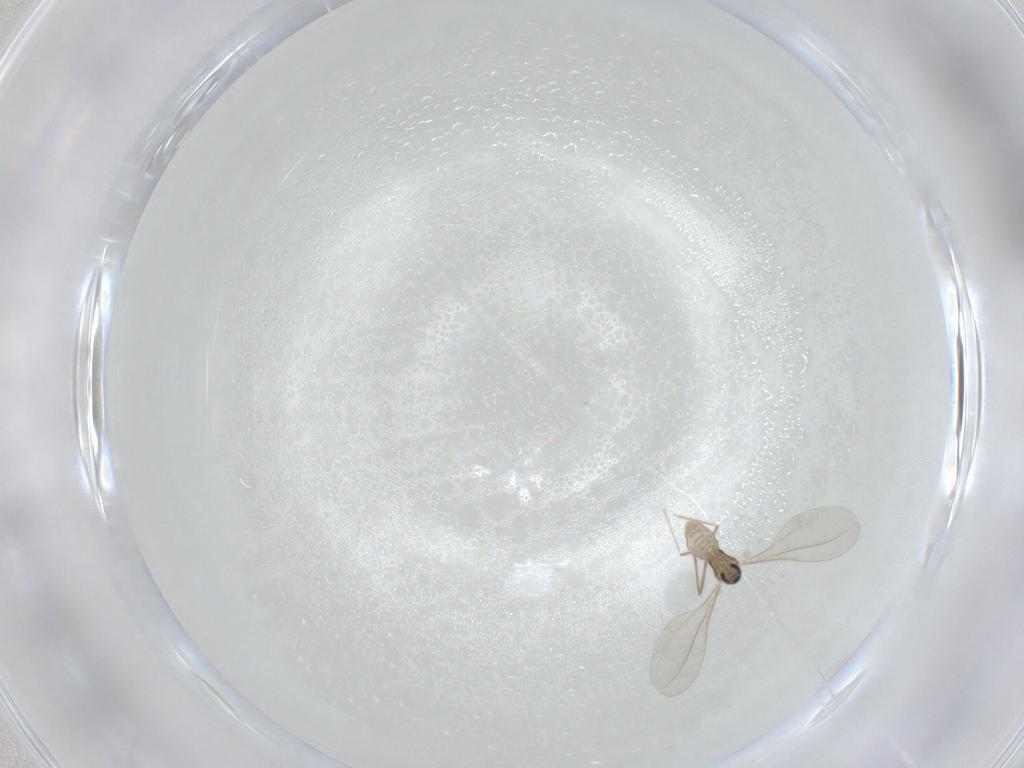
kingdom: Animalia
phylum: Arthropoda
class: Insecta
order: Diptera
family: Cecidomyiidae
